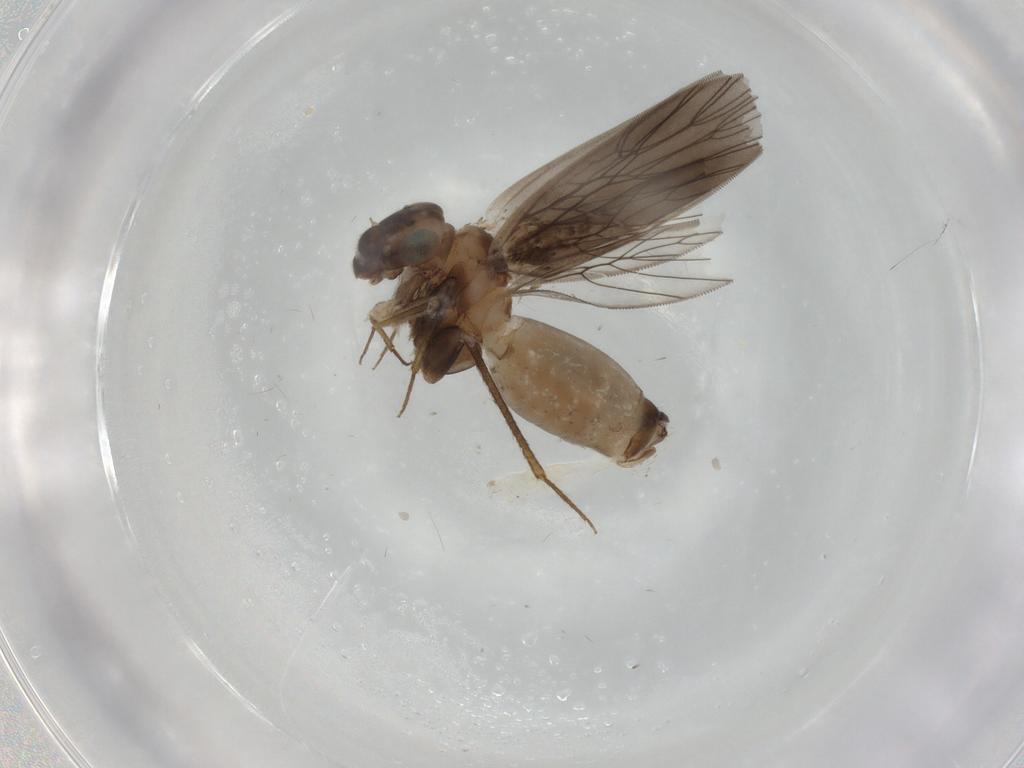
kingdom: Animalia
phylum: Arthropoda
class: Insecta
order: Psocodea
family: Lepidopsocidae
